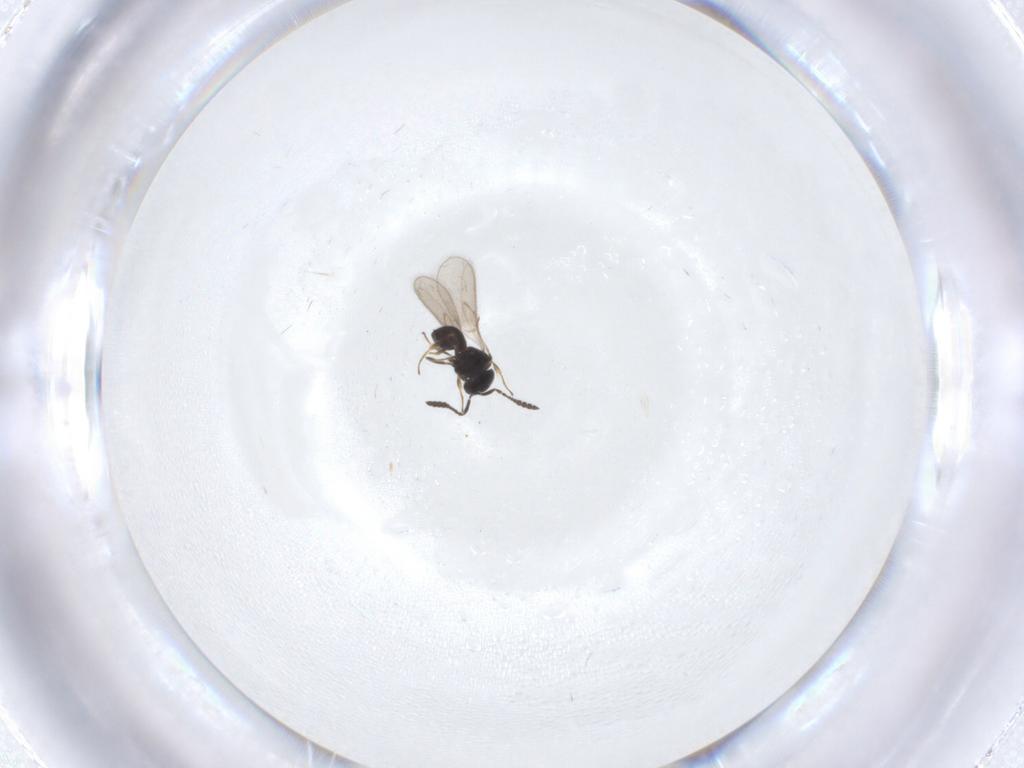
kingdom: Animalia
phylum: Arthropoda
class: Insecta
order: Hymenoptera
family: Scelionidae
